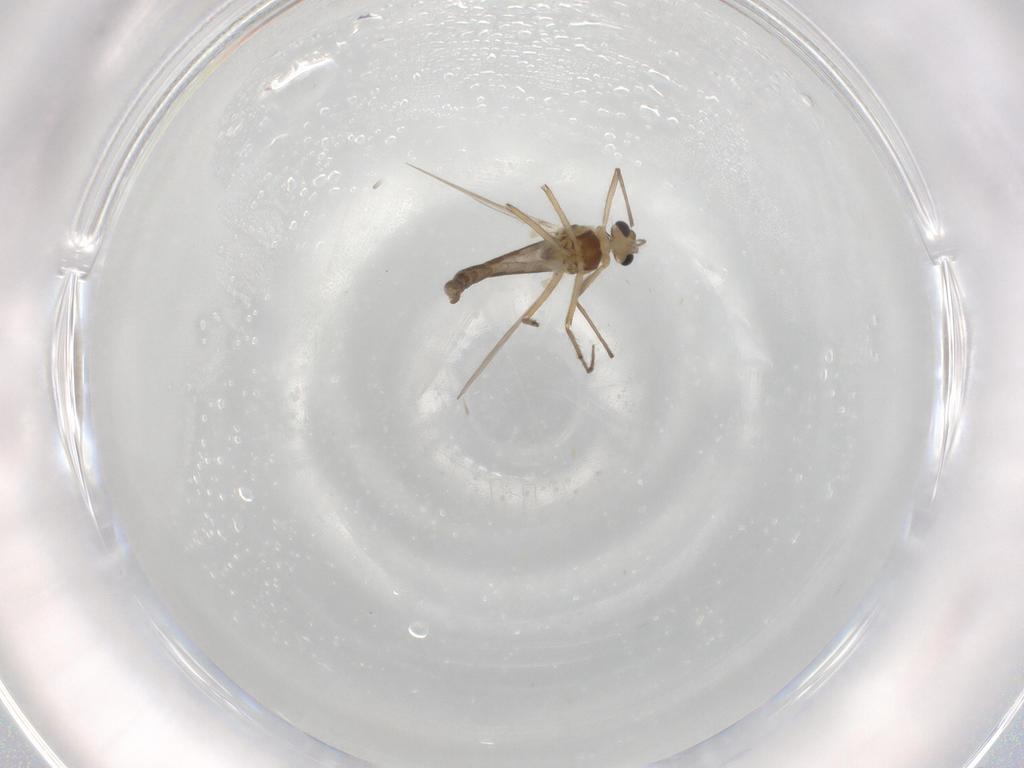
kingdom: Animalia
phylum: Arthropoda
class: Insecta
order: Diptera
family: Chironomidae
